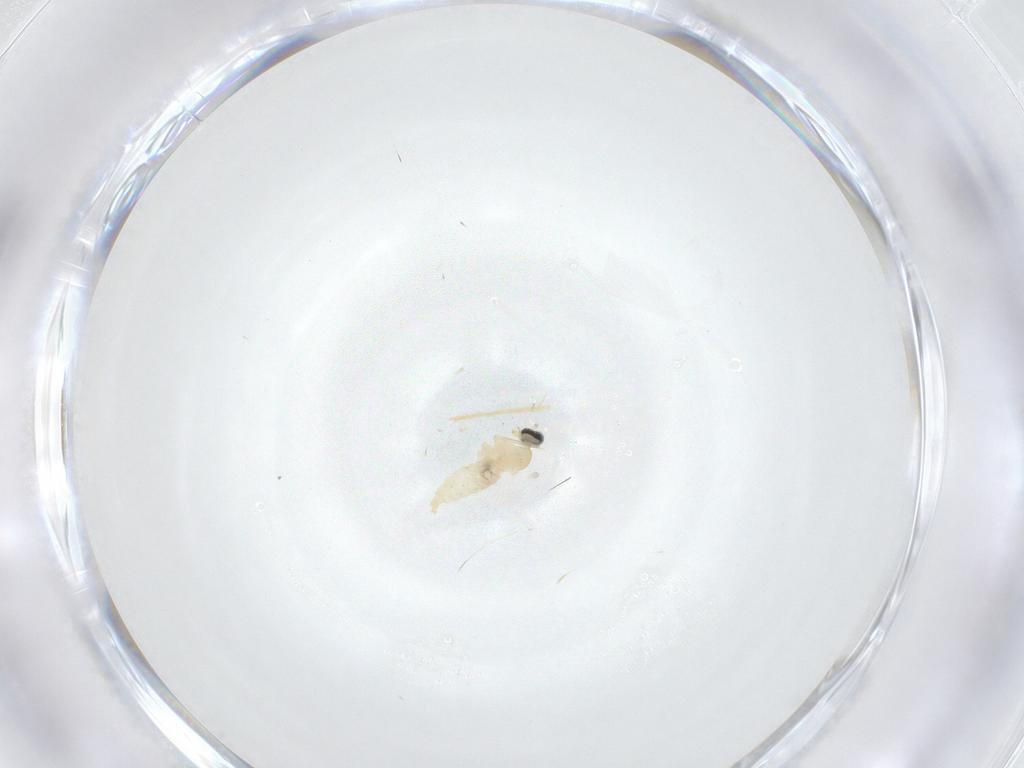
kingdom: Animalia
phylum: Arthropoda
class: Insecta
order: Diptera
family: Cecidomyiidae
